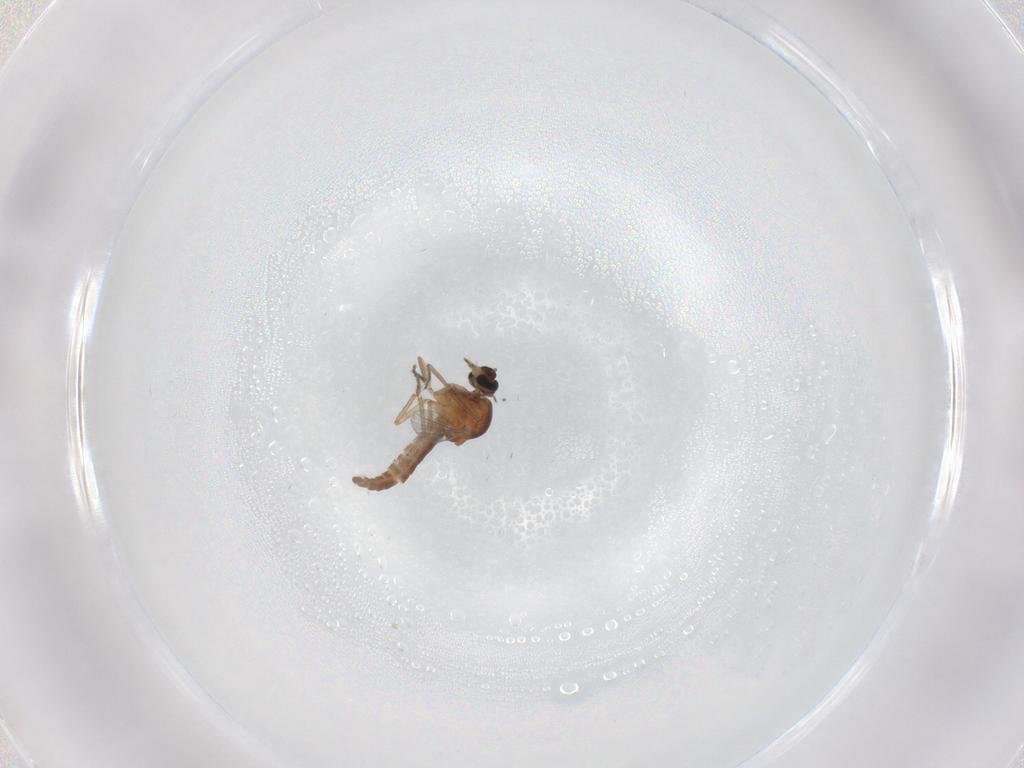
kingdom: Animalia
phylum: Arthropoda
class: Insecta
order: Diptera
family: Ceratopogonidae
